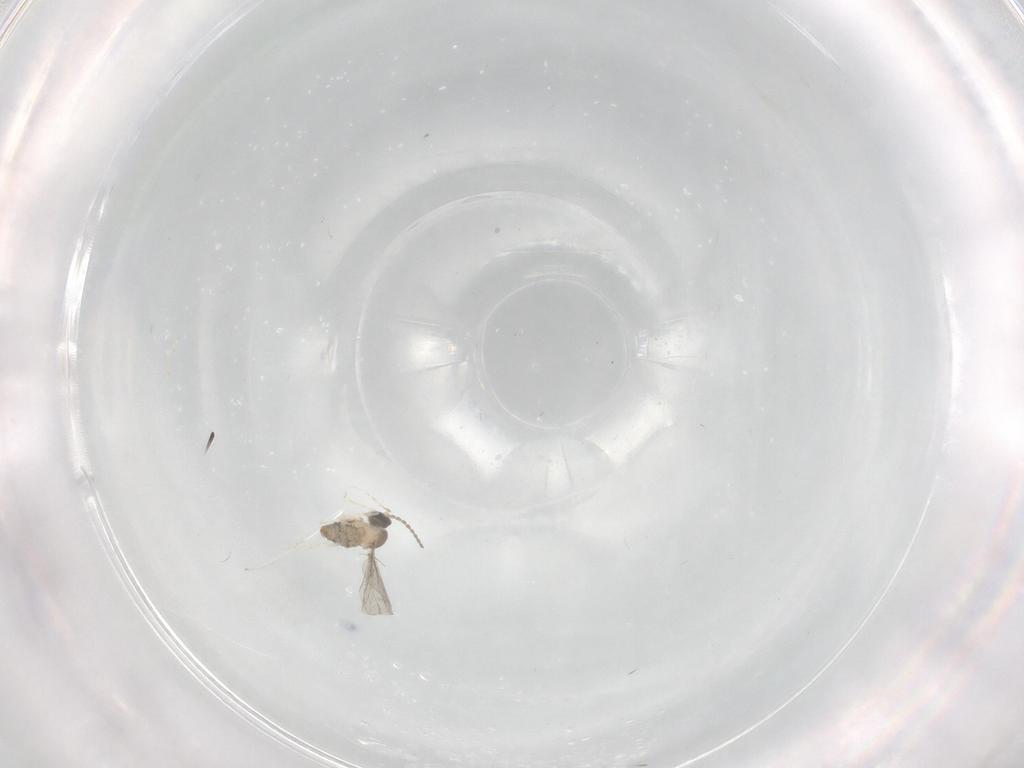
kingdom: Animalia
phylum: Arthropoda
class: Insecta
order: Diptera
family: Cecidomyiidae
